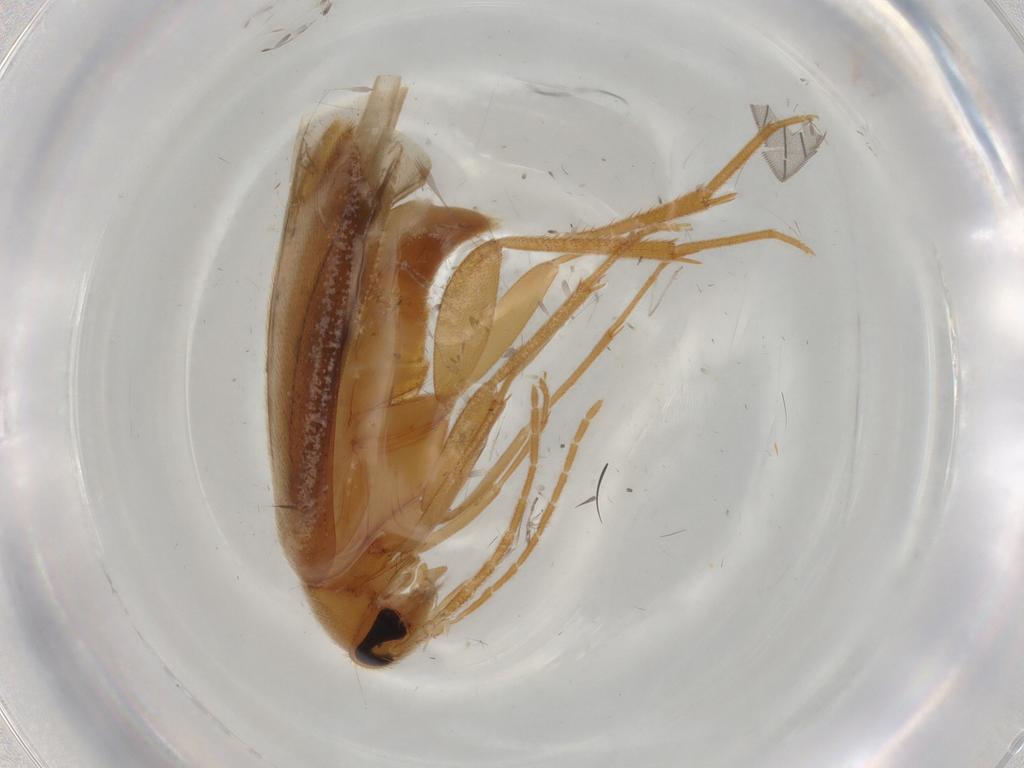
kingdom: Animalia
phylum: Arthropoda
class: Insecta
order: Coleoptera
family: Scraptiidae
